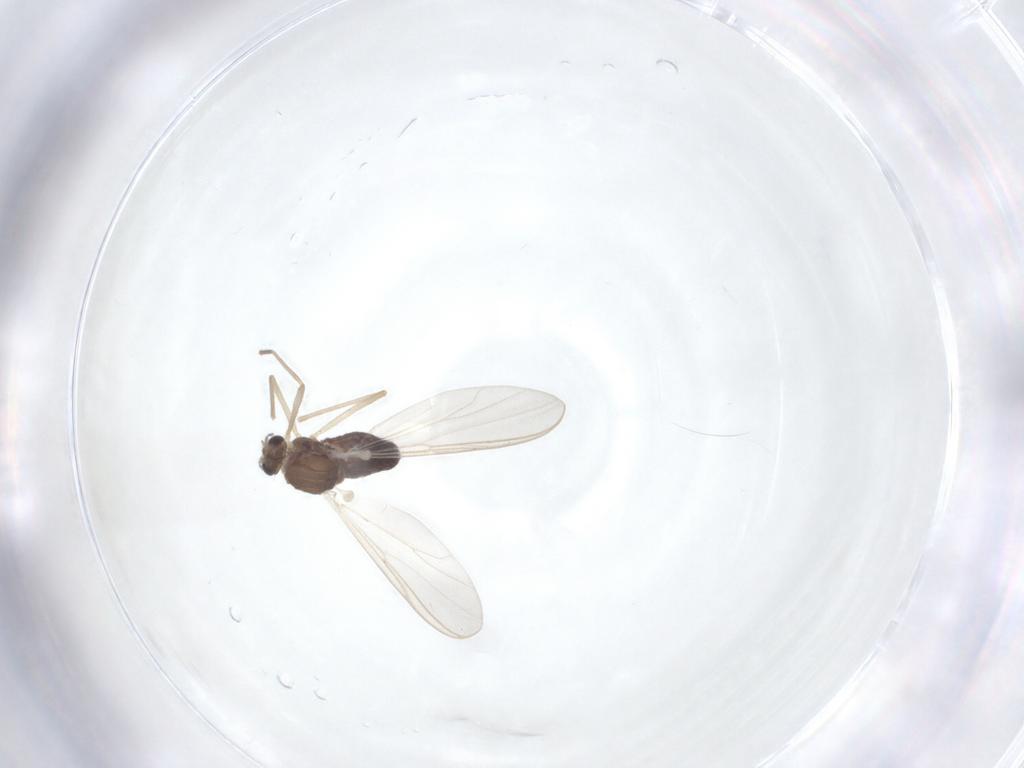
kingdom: Animalia
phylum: Arthropoda
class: Insecta
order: Diptera
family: Chironomidae
